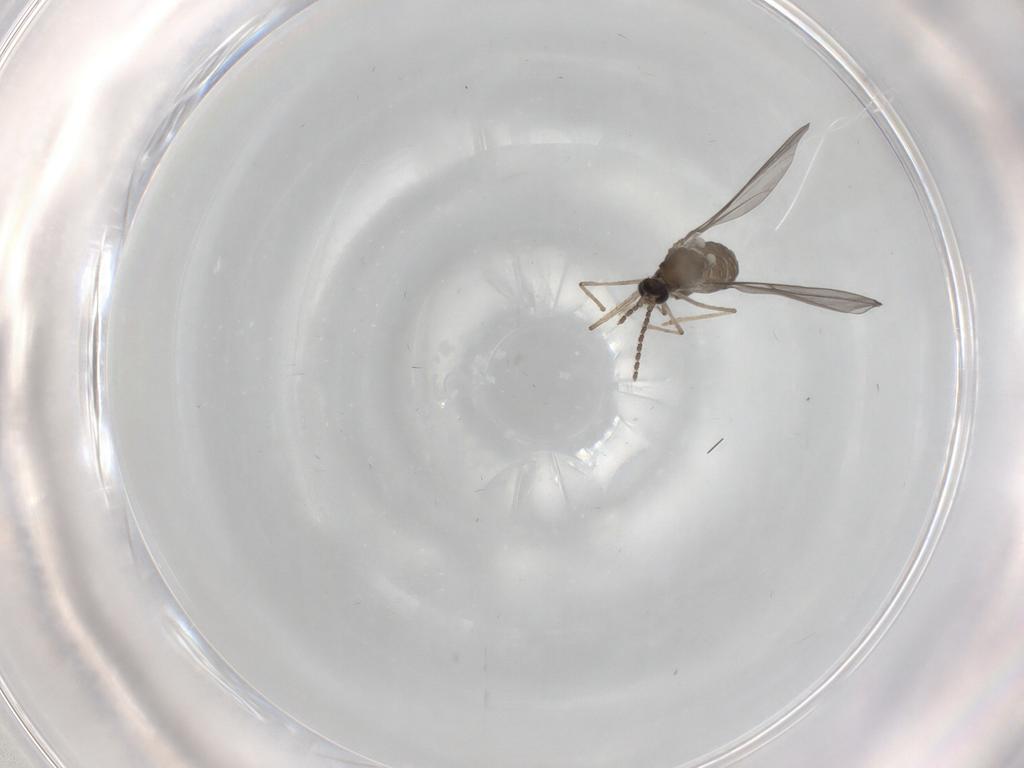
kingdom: Animalia
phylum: Arthropoda
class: Insecta
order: Diptera
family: Cecidomyiidae
